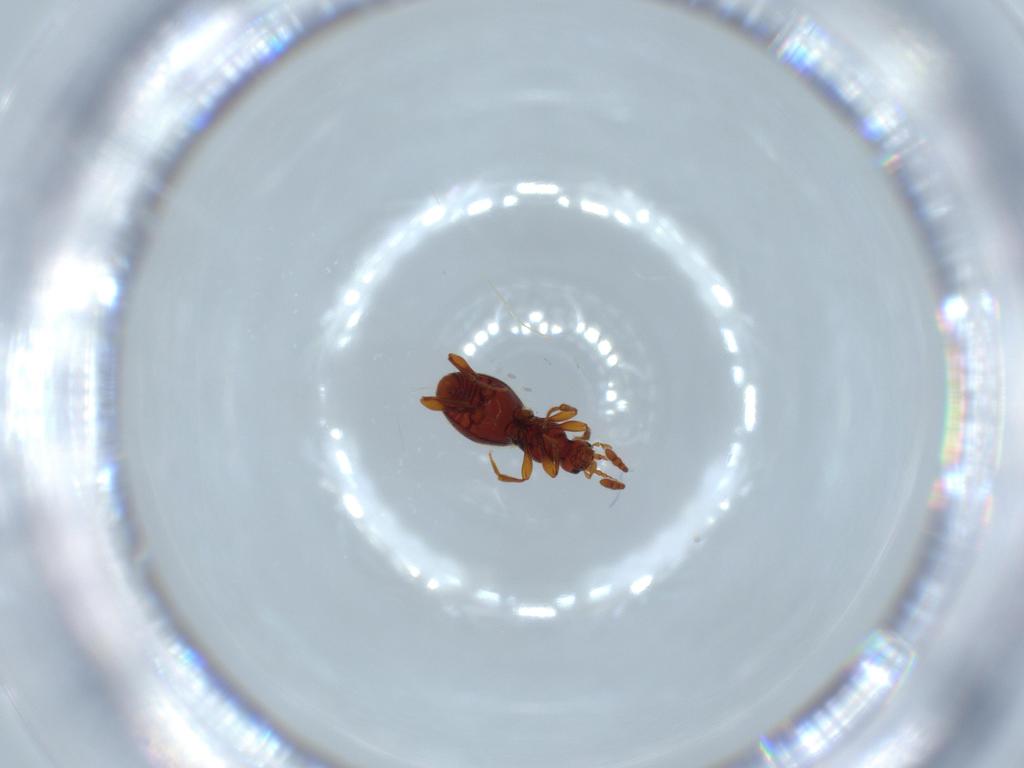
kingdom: Animalia
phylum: Arthropoda
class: Insecta
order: Coleoptera
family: Staphylinidae
